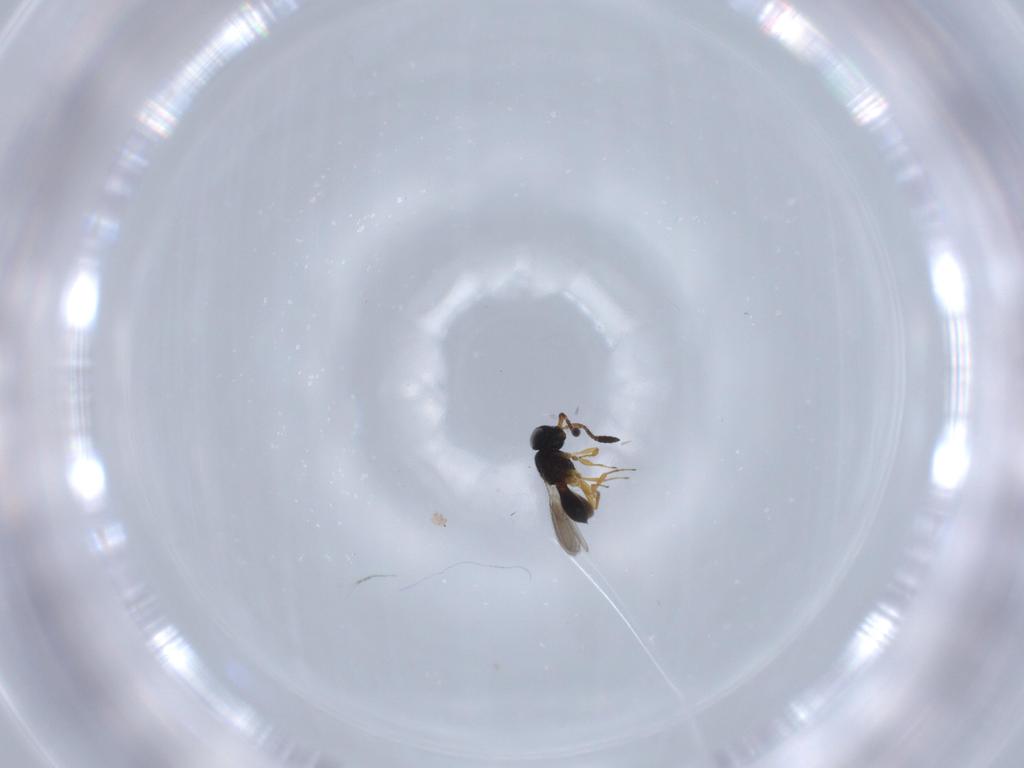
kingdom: Animalia
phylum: Arthropoda
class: Insecta
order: Hymenoptera
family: Scelionidae
